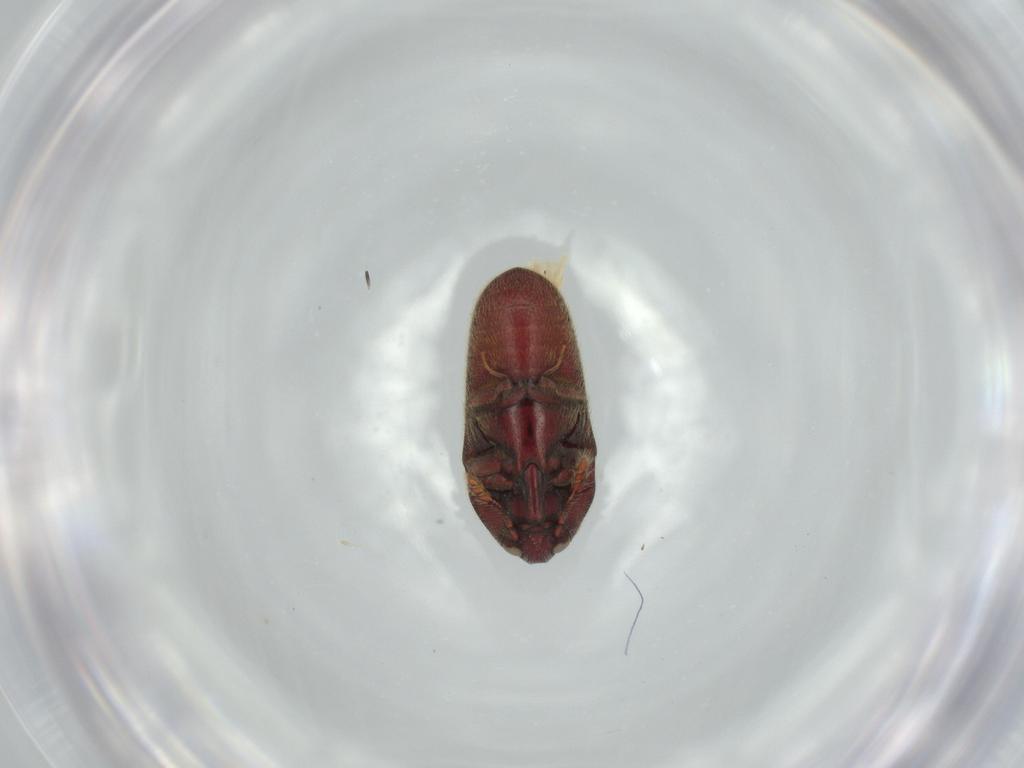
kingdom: Animalia
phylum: Arthropoda
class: Insecta
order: Coleoptera
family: Throscidae
